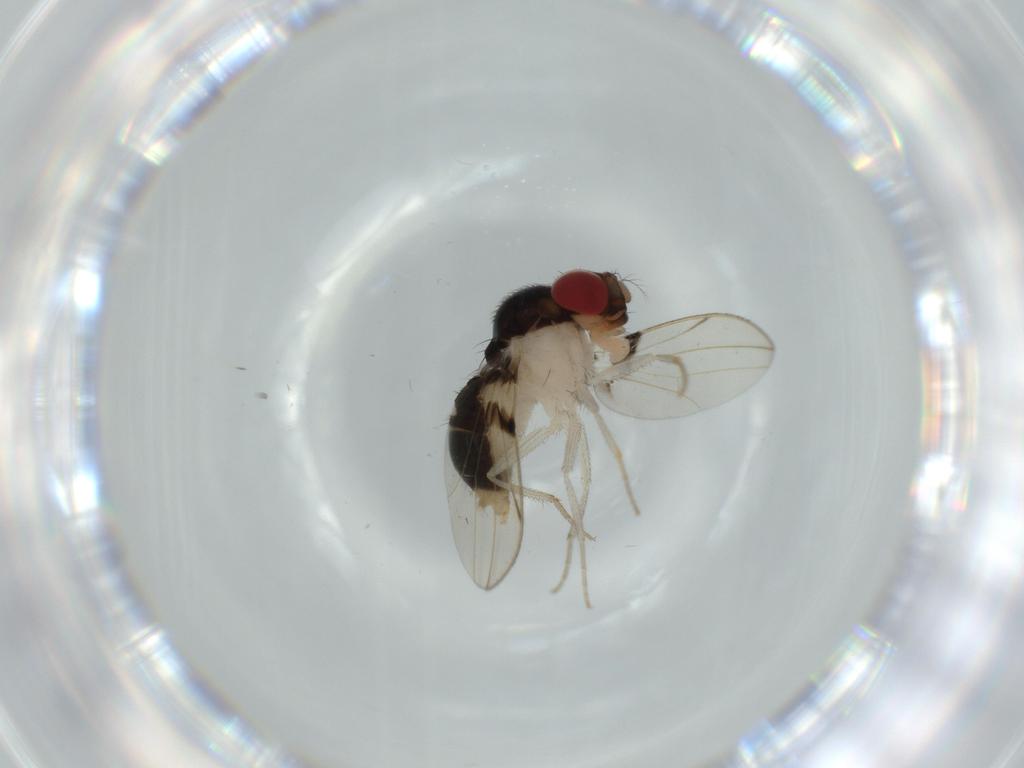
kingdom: Animalia
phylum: Arthropoda
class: Insecta
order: Diptera
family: Drosophilidae
